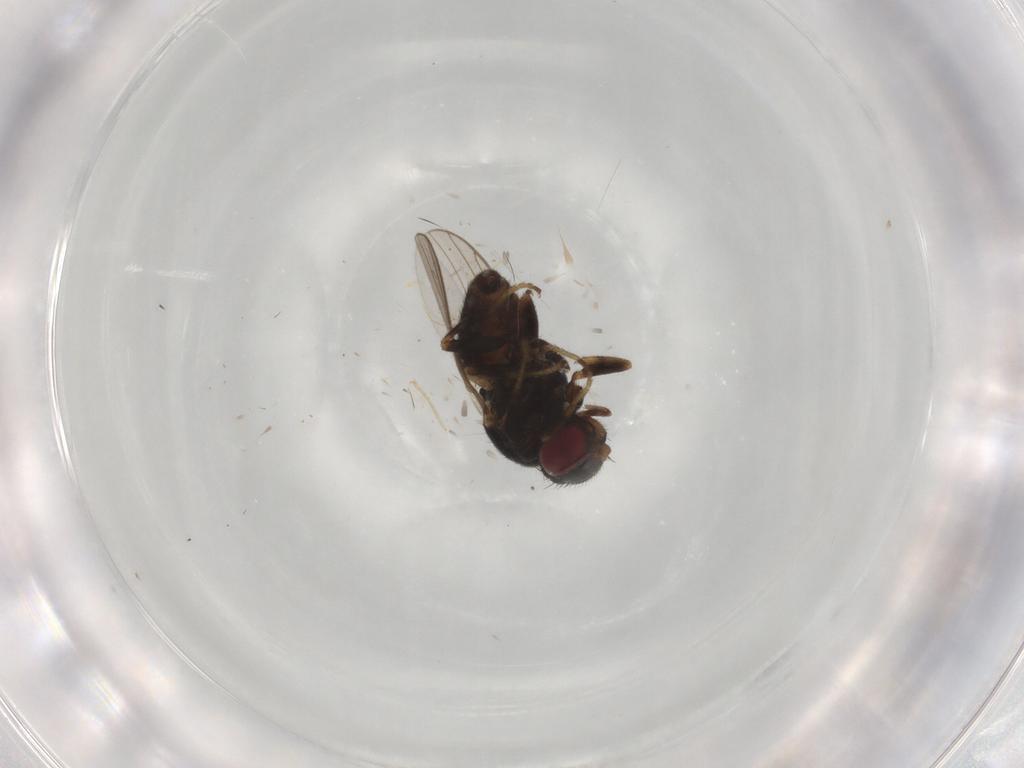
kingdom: Animalia
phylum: Arthropoda
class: Insecta
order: Diptera
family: Chloropidae
